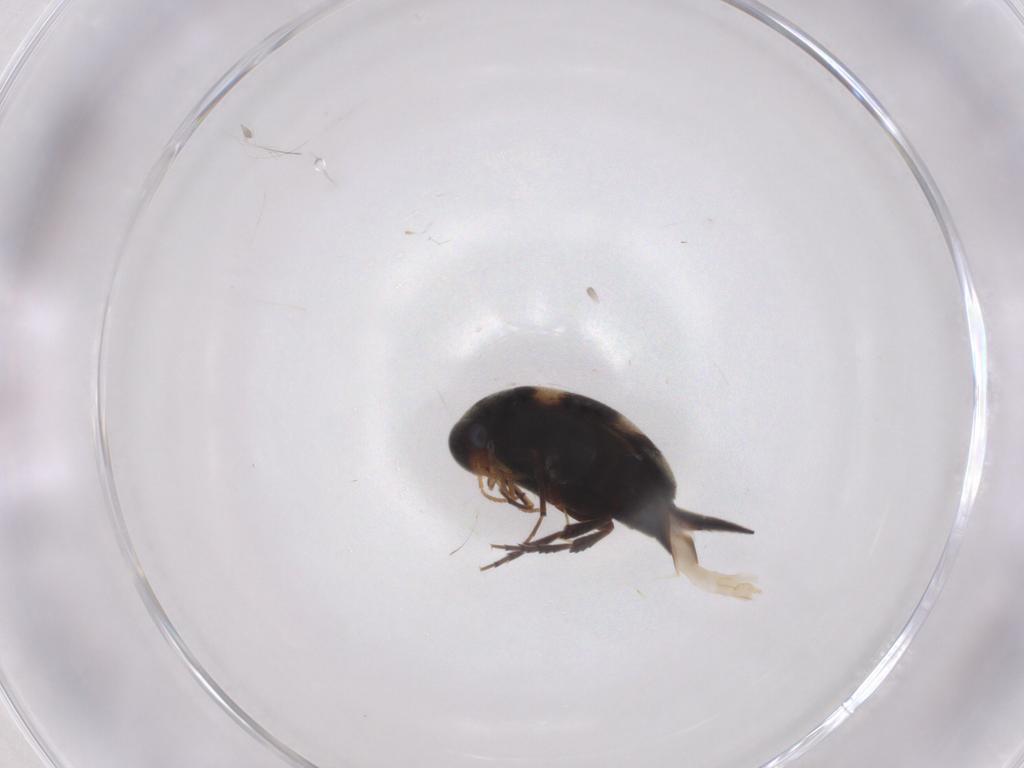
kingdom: Animalia
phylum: Arthropoda
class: Insecta
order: Coleoptera
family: Mordellidae
